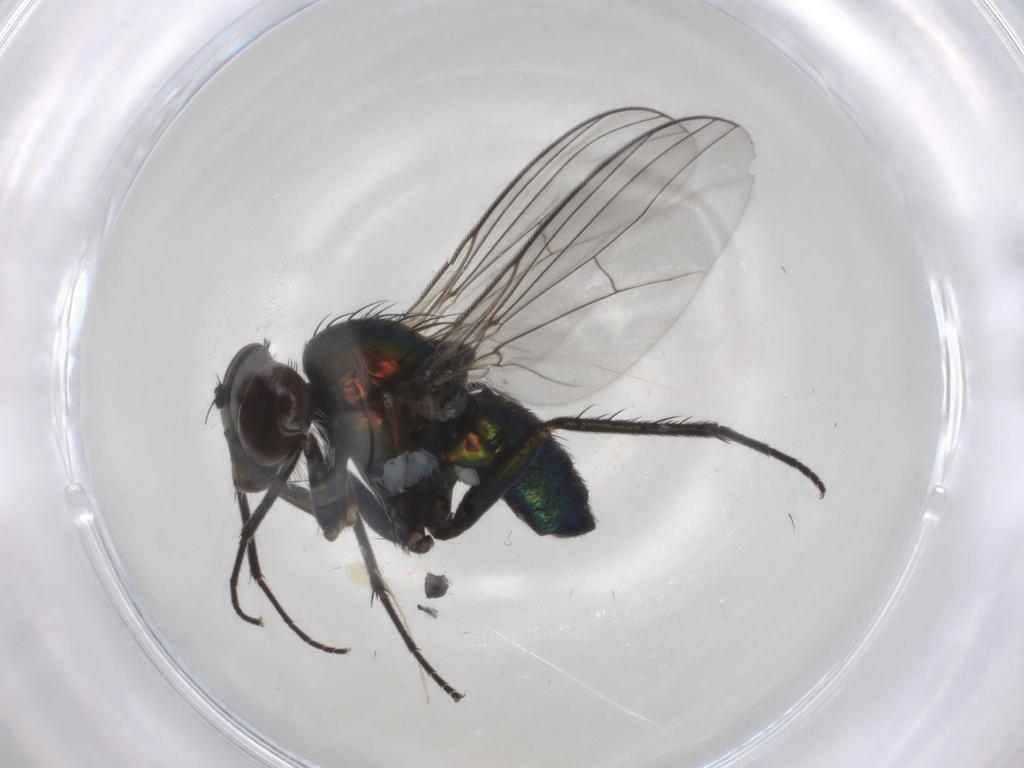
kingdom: Animalia
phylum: Arthropoda
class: Insecta
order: Diptera
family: Dolichopodidae
